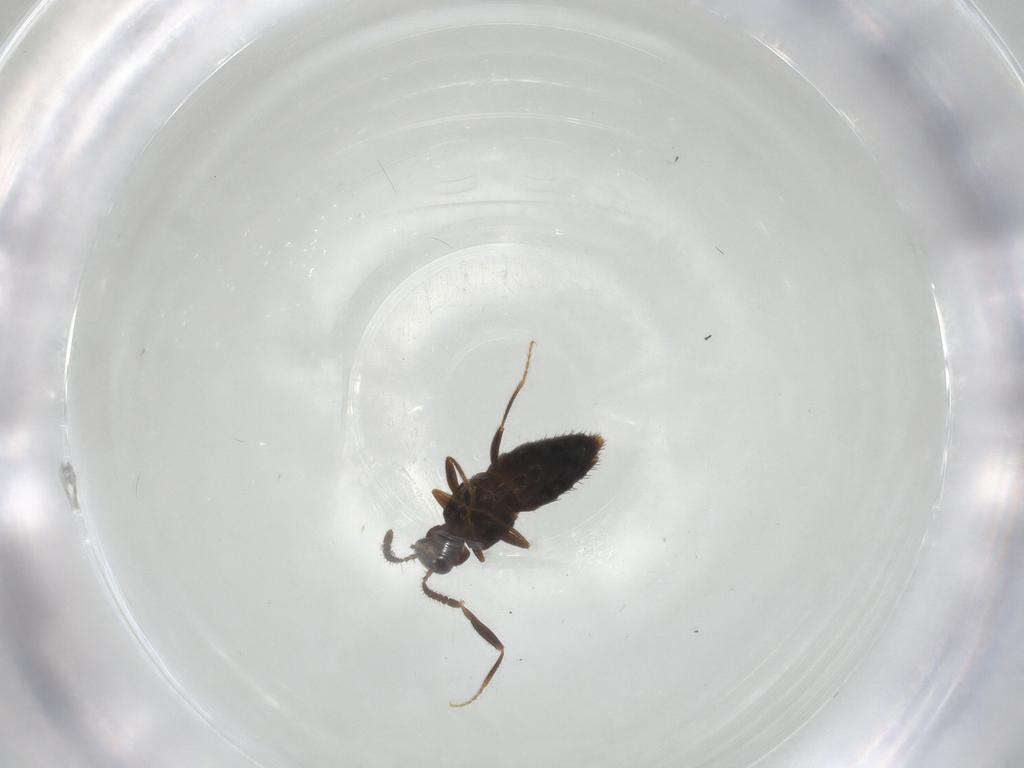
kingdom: Animalia
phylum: Arthropoda
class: Insecta
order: Coleoptera
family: Staphylinidae
